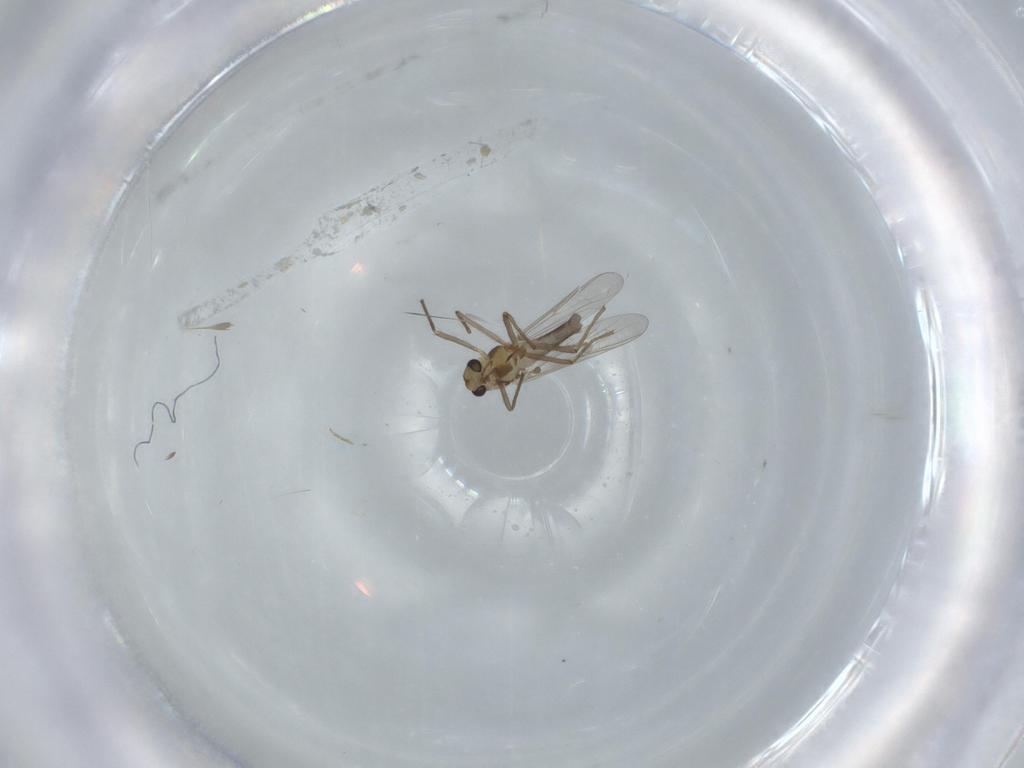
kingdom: Animalia
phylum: Arthropoda
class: Insecta
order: Diptera
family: Chironomidae
